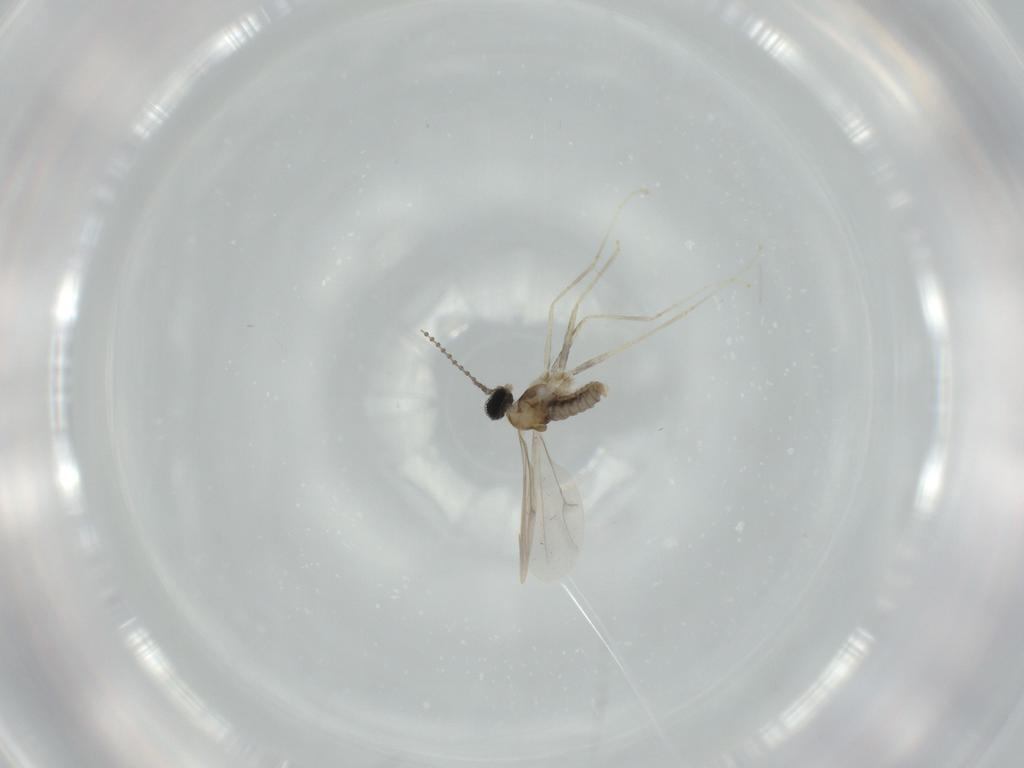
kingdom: Animalia
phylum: Arthropoda
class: Insecta
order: Diptera
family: Cecidomyiidae
